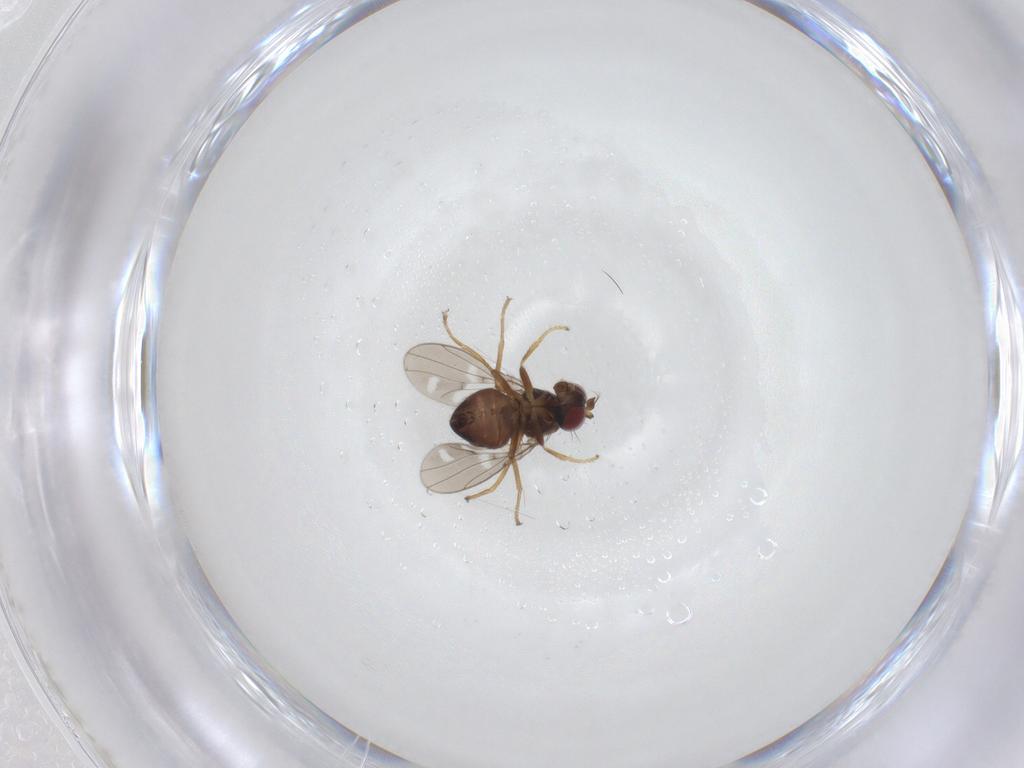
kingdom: Animalia
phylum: Arthropoda
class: Insecta
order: Diptera
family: Ephydridae
